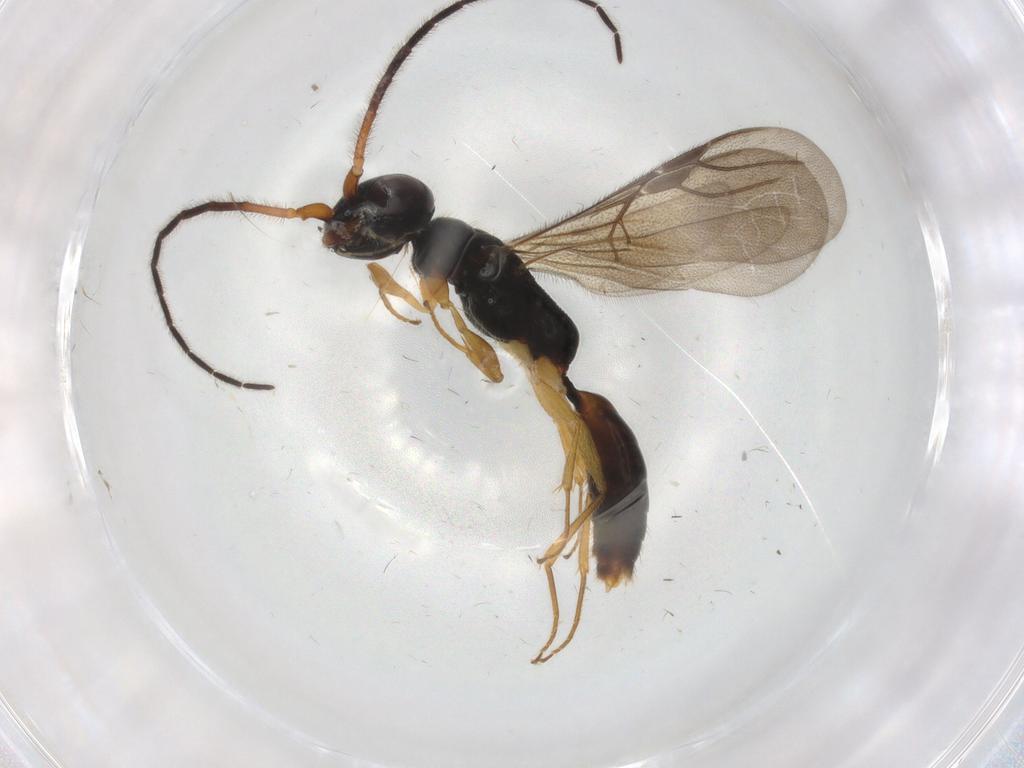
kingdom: Animalia
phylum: Arthropoda
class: Insecta
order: Hymenoptera
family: Bethylidae
